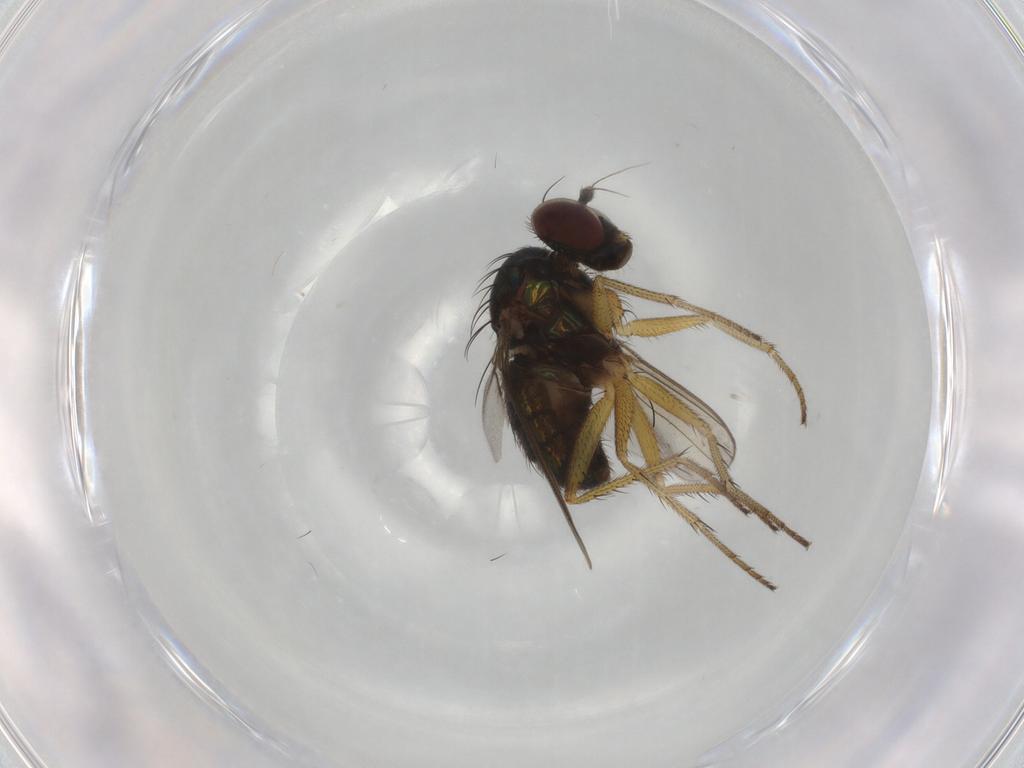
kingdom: Animalia
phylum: Arthropoda
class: Insecta
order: Diptera
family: Dolichopodidae
